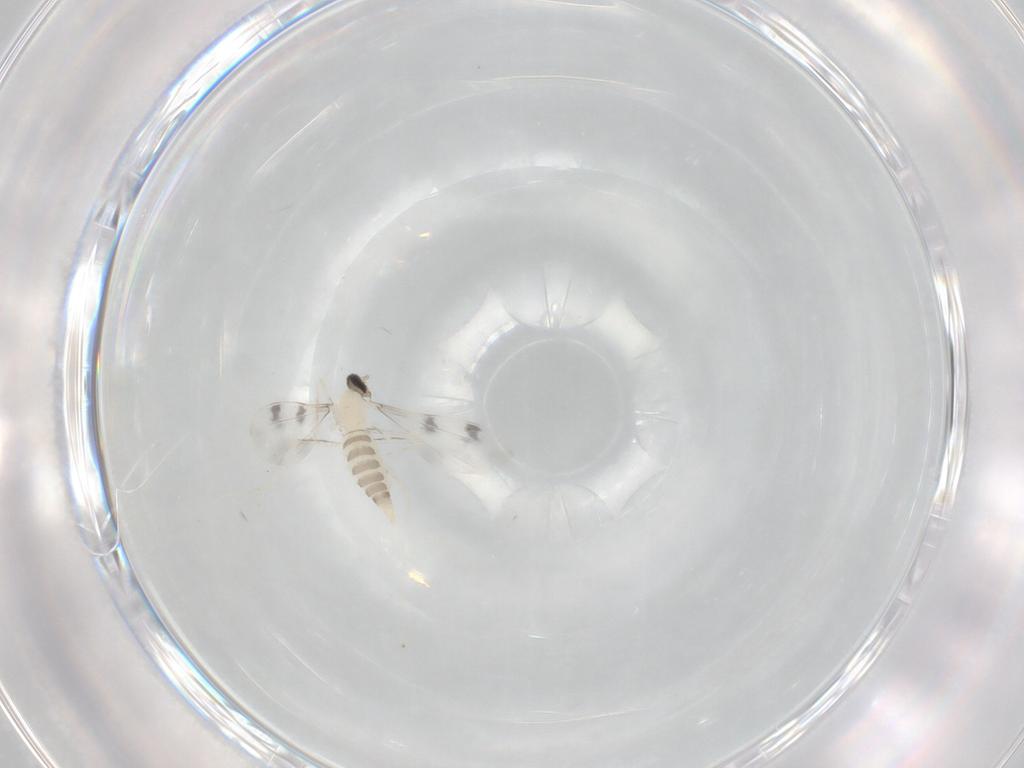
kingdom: Animalia
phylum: Arthropoda
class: Insecta
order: Diptera
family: Cecidomyiidae
